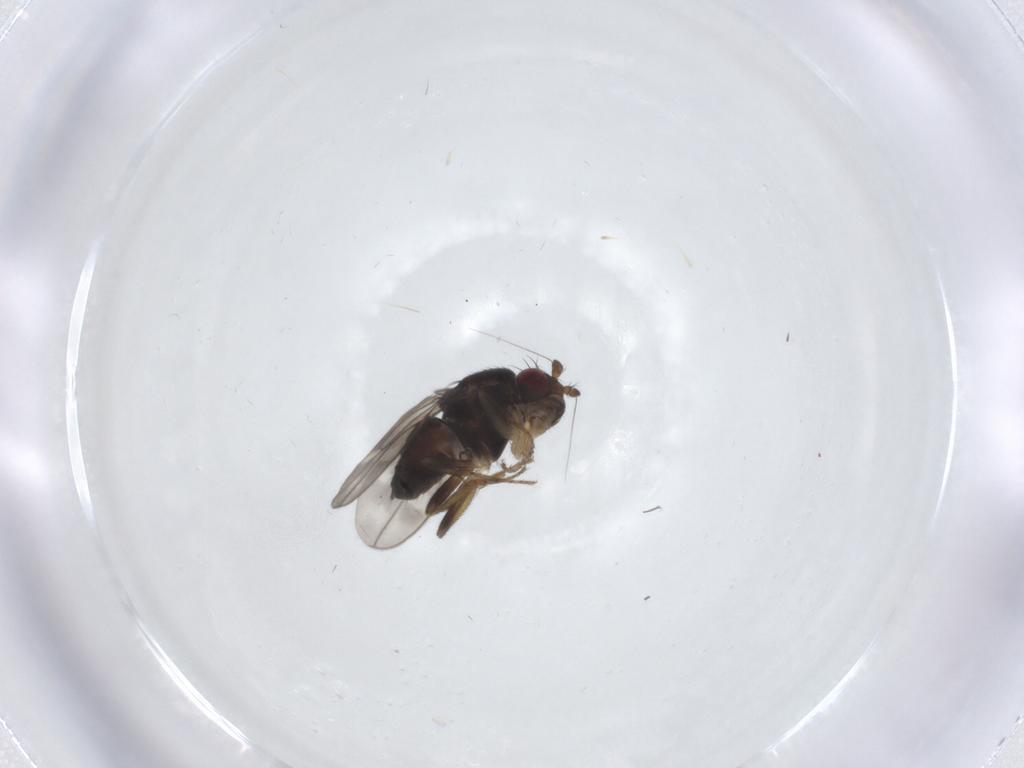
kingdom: Animalia
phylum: Arthropoda
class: Insecta
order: Diptera
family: Sphaeroceridae
